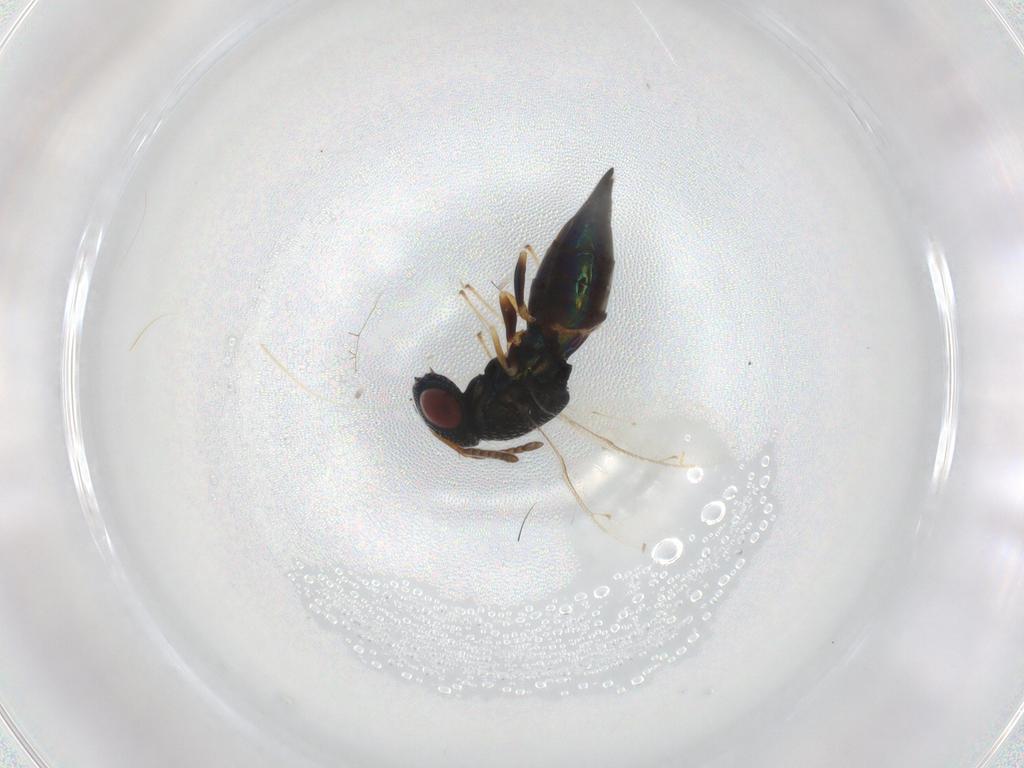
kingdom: Animalia
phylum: Arthropoda
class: Insecta
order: Hymenoptera
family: Pteromalidae
